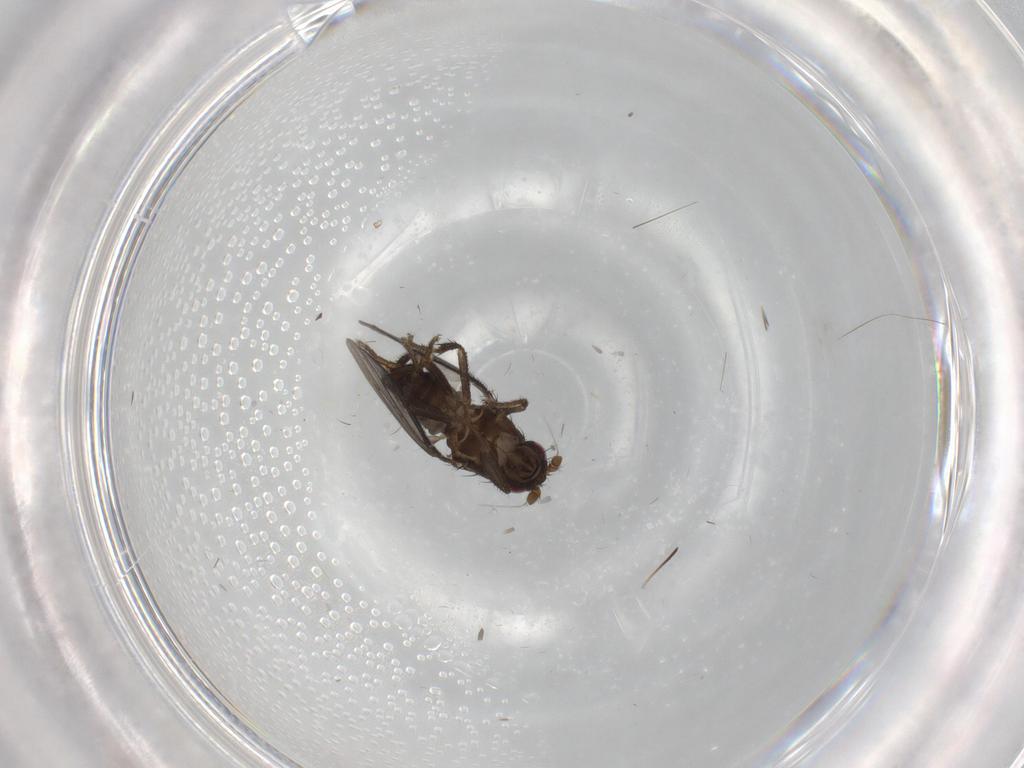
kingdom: Animalia
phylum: Arthropoda
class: Insecta
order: Diptera
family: Sphaeroceridae
